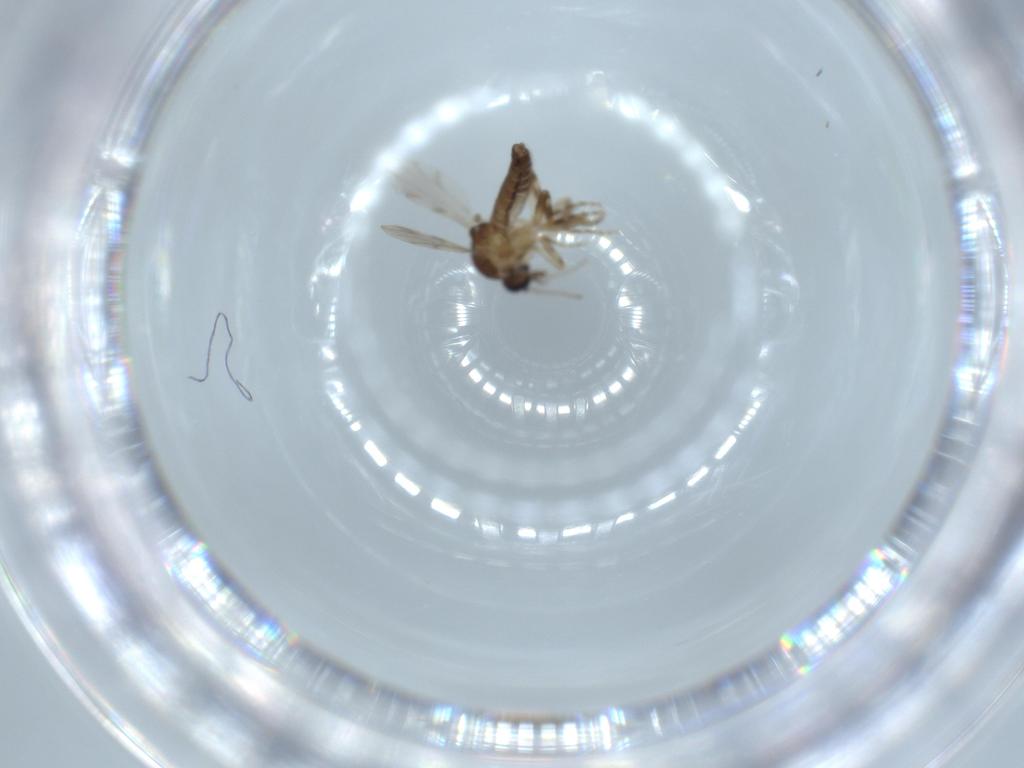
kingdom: Animalia
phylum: Arthropoda
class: Insecta
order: Diptera
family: Ceratopogonidae
